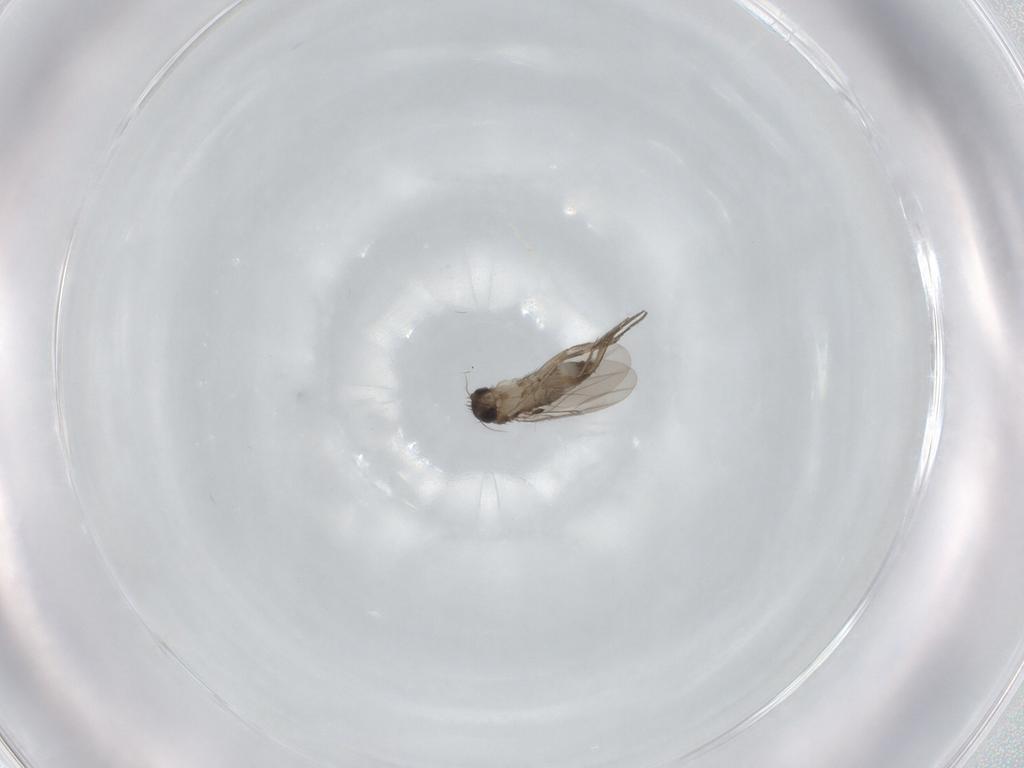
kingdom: Animalia
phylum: Arthropoda
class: Insecta
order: Diptera
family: Phoridae
